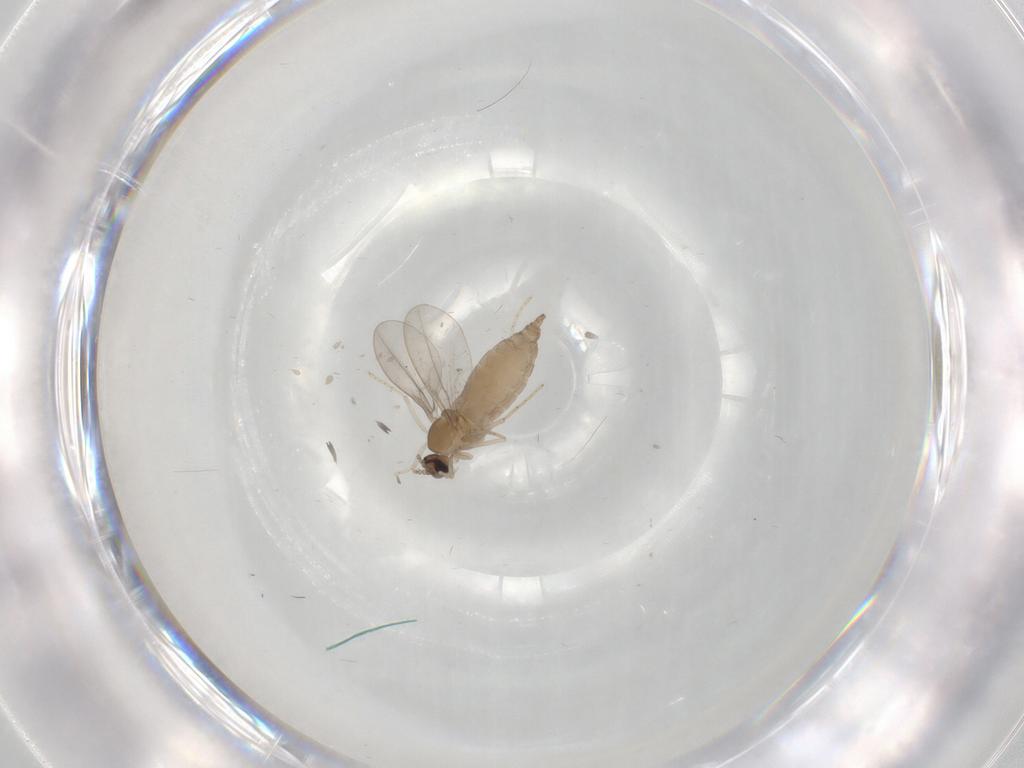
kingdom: Animalia
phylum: Arthropoda
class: Insecta
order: Diptera
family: Cecidomyiidae
